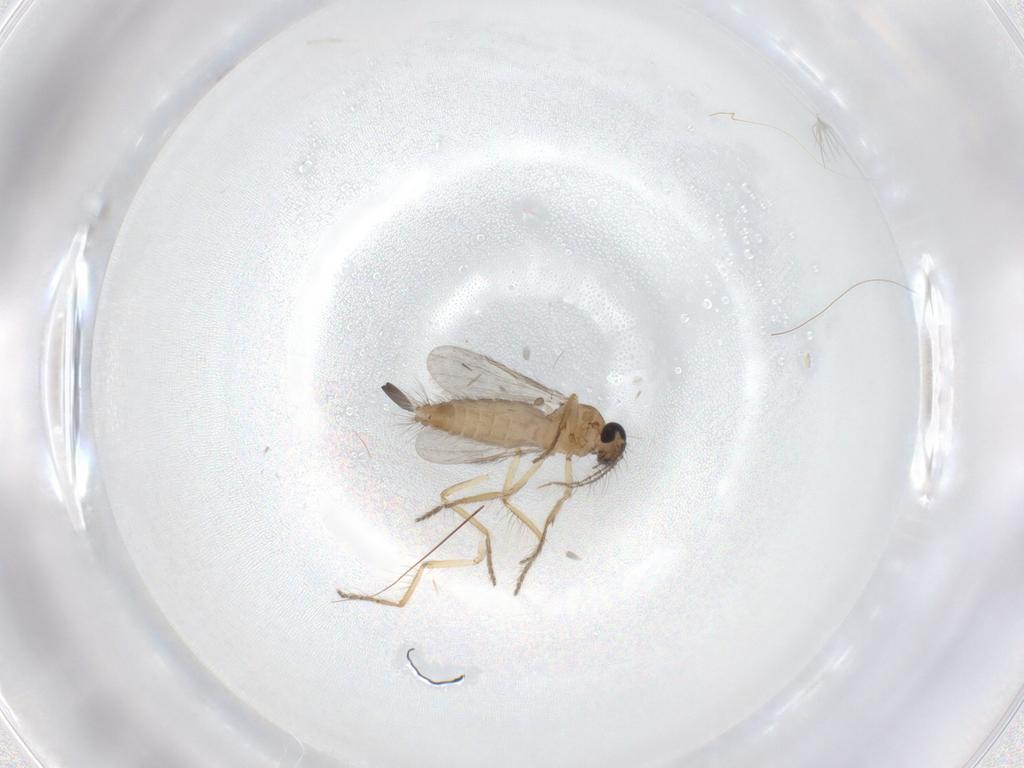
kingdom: Animalia
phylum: Arthropoda
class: Insecta
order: Diptera
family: Ceratopogonidae
